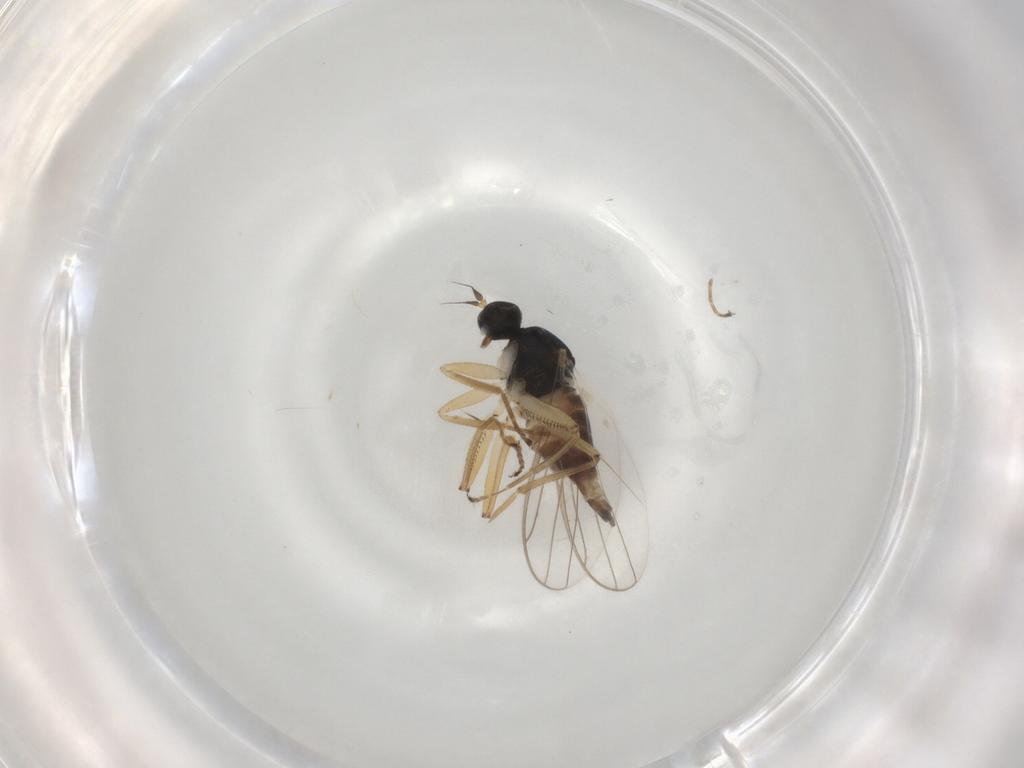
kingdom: Animalia
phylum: Arthropoda
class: Insecta
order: Diptera
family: Hybotidae
